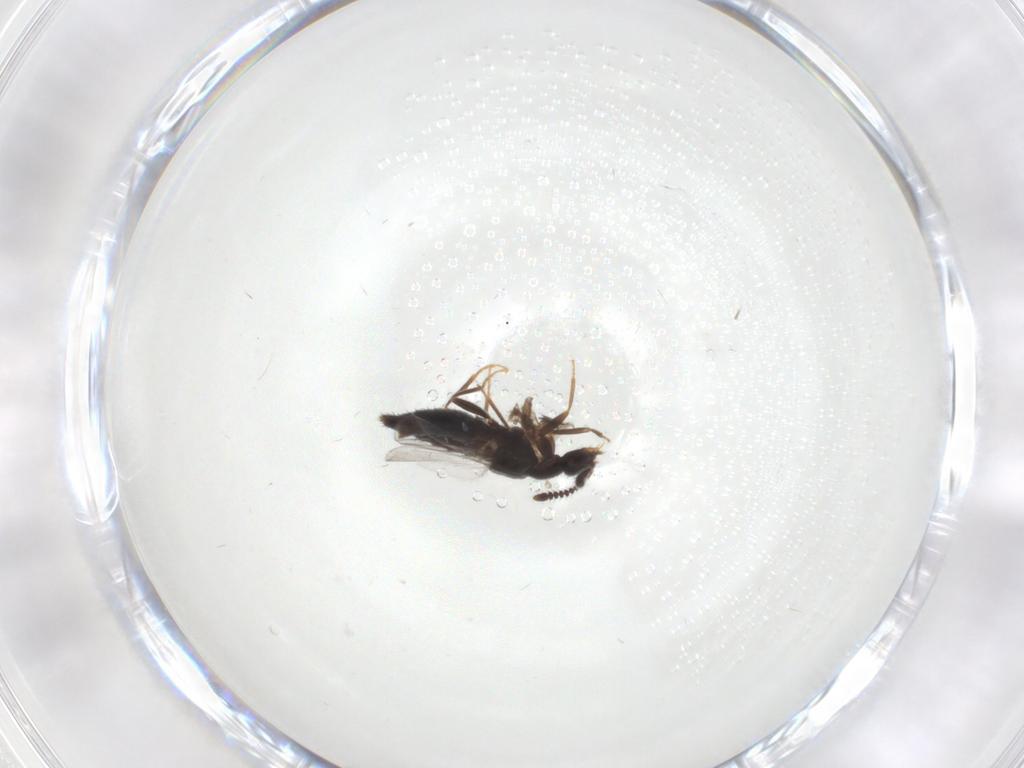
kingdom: Animalia
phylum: Arthropoda
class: Insecta
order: Coleoptera
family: Staphylinidae
